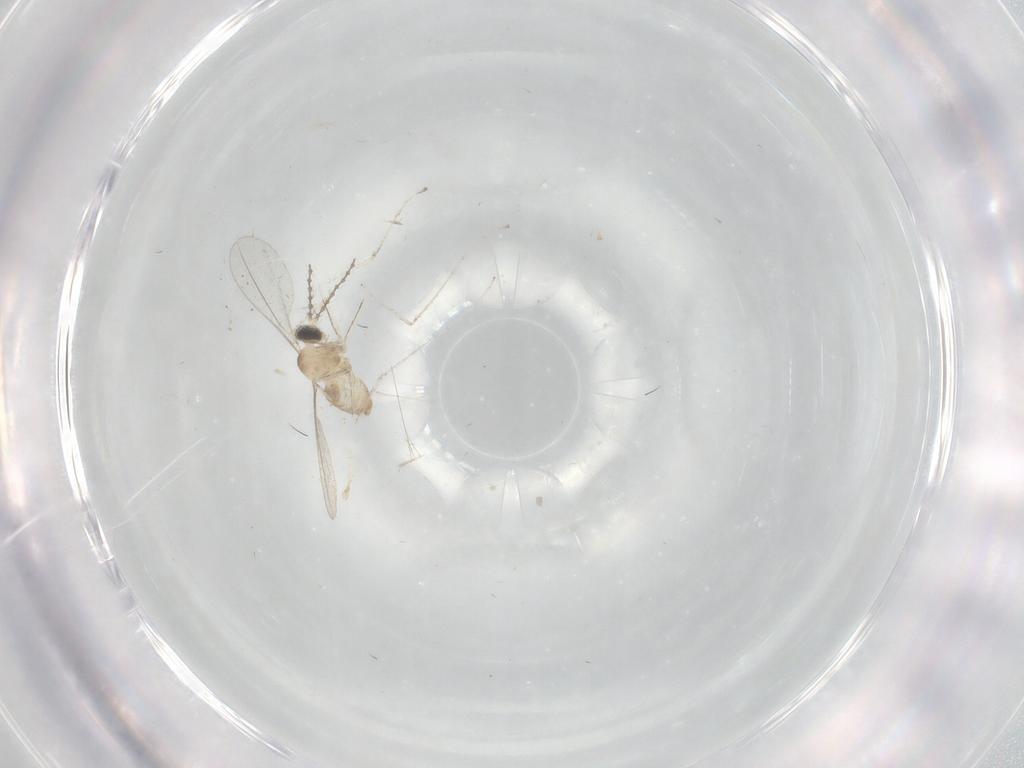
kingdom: Animalia
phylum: Arthropoda
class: Insecta
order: Diptera
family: Cecidomyiidae
